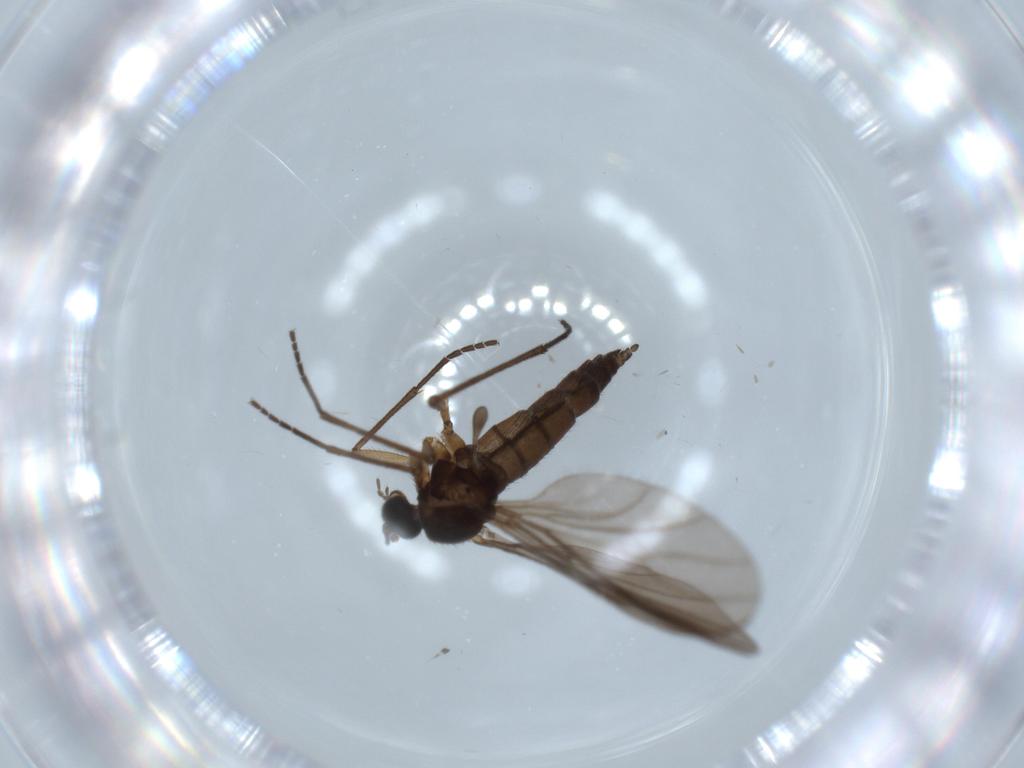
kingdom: Animalia
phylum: Arthropoda
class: Insecta
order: Diptera
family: Sciaridae
